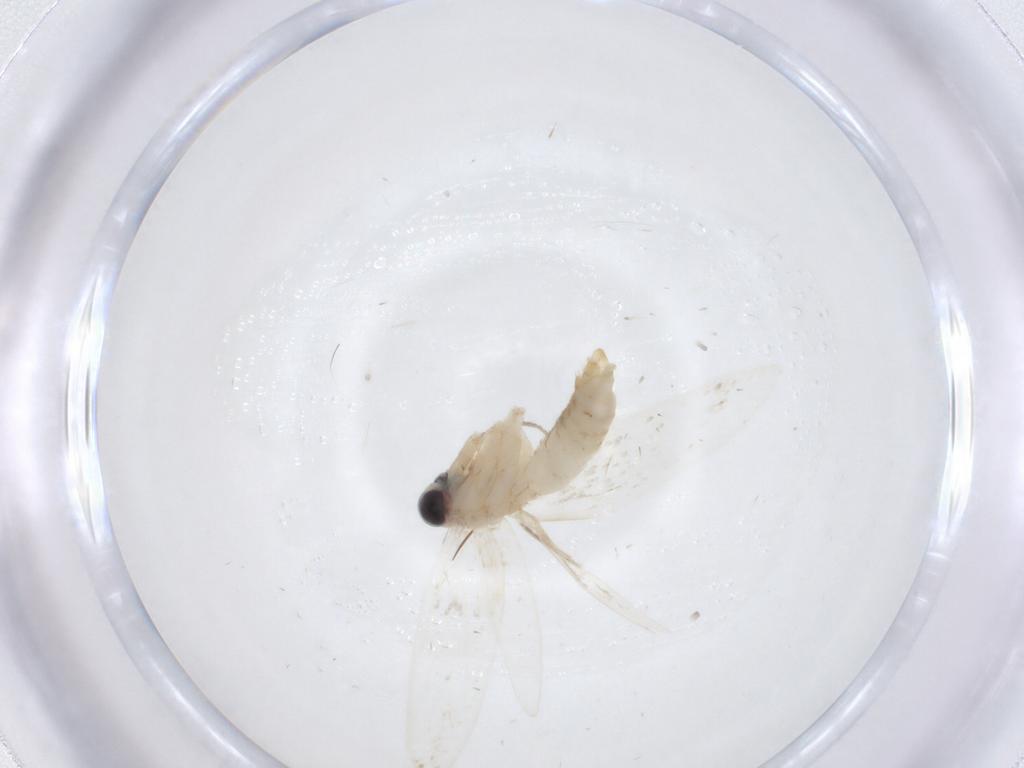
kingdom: Animalia
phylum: Arthropoda
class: Insecta
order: Lepidoptera
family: Psychidae
